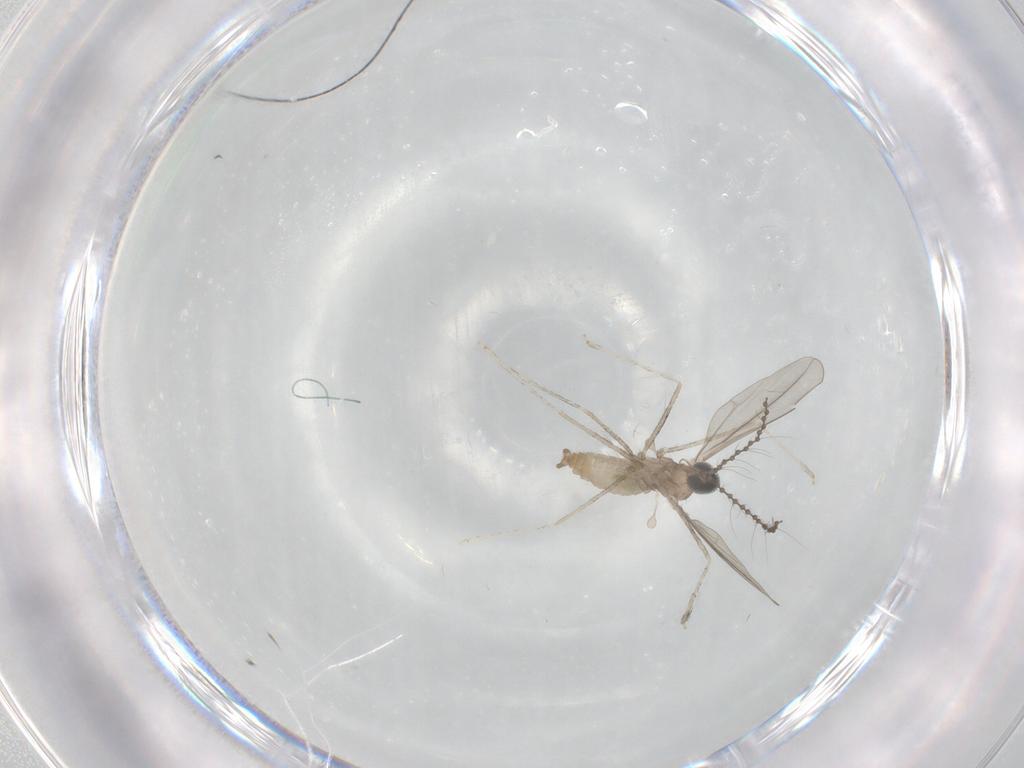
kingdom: Animalia
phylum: Arthropoda
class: Insecta
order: Diptera
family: Cecidomyiidae
